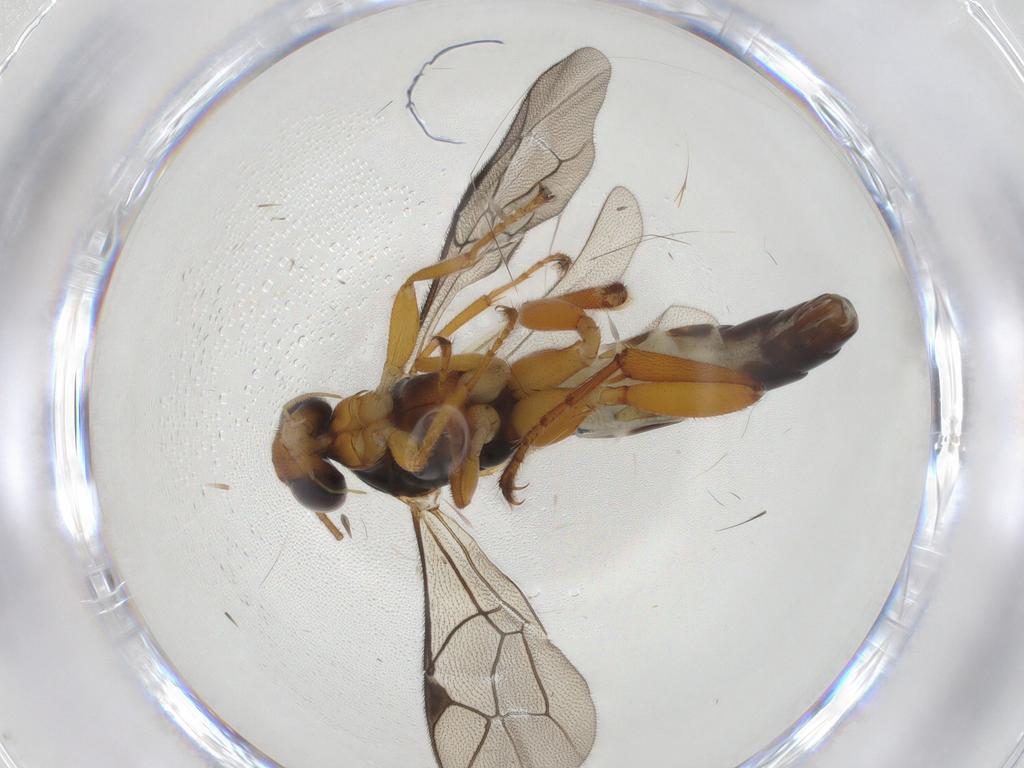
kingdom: Animalia
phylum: Arthropoda
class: Insecta
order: Hymenoptera
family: Ichneumonidae
